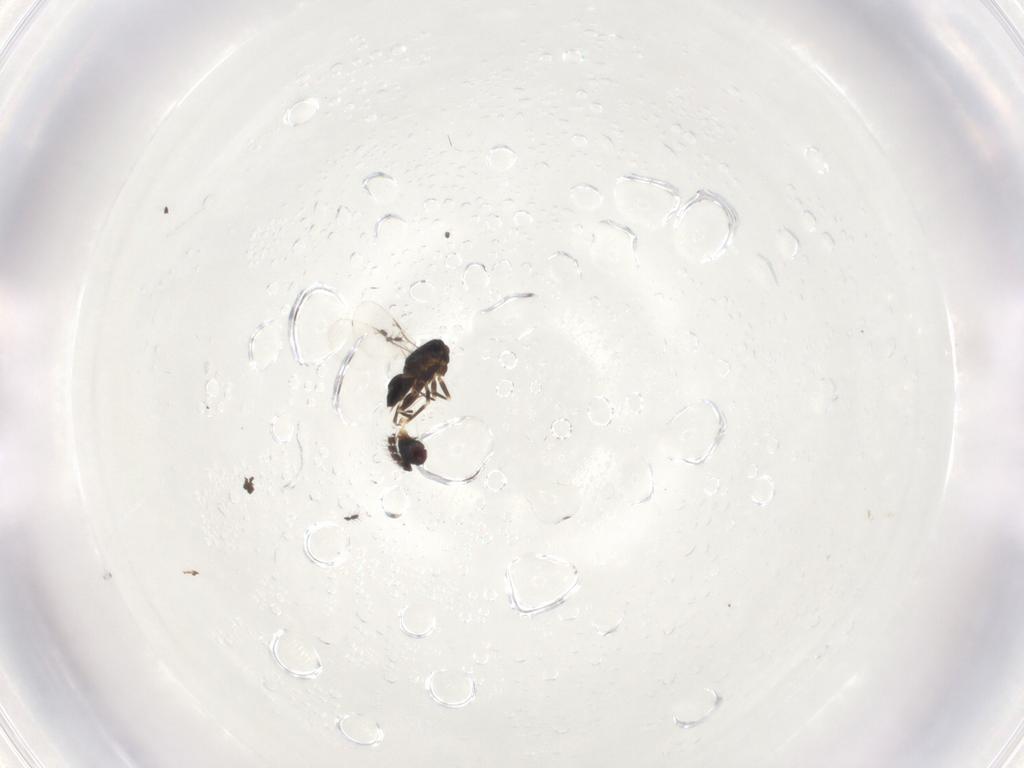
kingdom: Animalia
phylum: Arthropoda
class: Insecta
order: Hymenoptera
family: Encyrtidae
